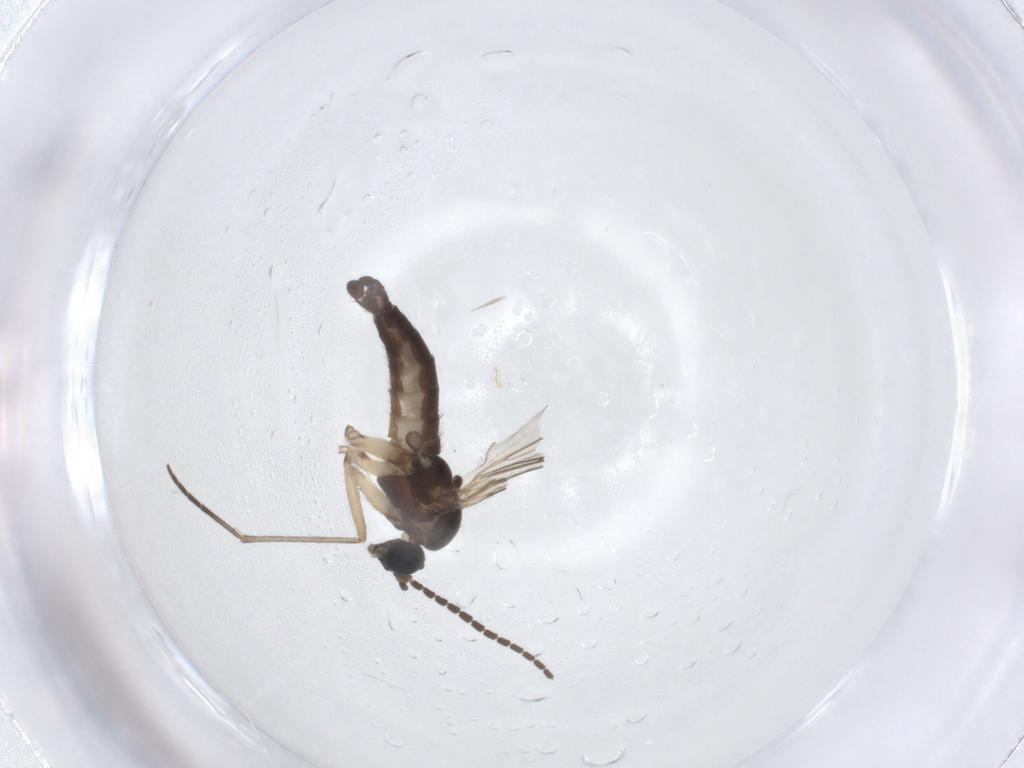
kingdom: Animalia
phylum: Arthropoda
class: Insecta
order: Diptera
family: Sciaridae
